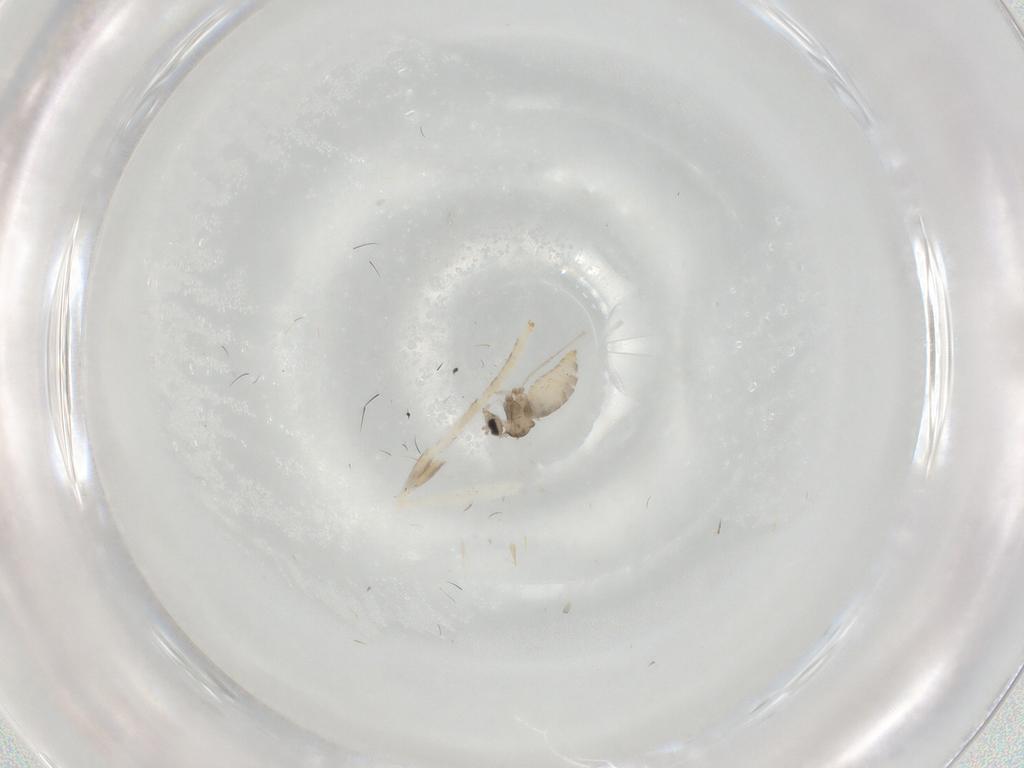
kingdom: Animalia
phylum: Arthropoda
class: Insecta
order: Diptera
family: Cecidomyiidae
